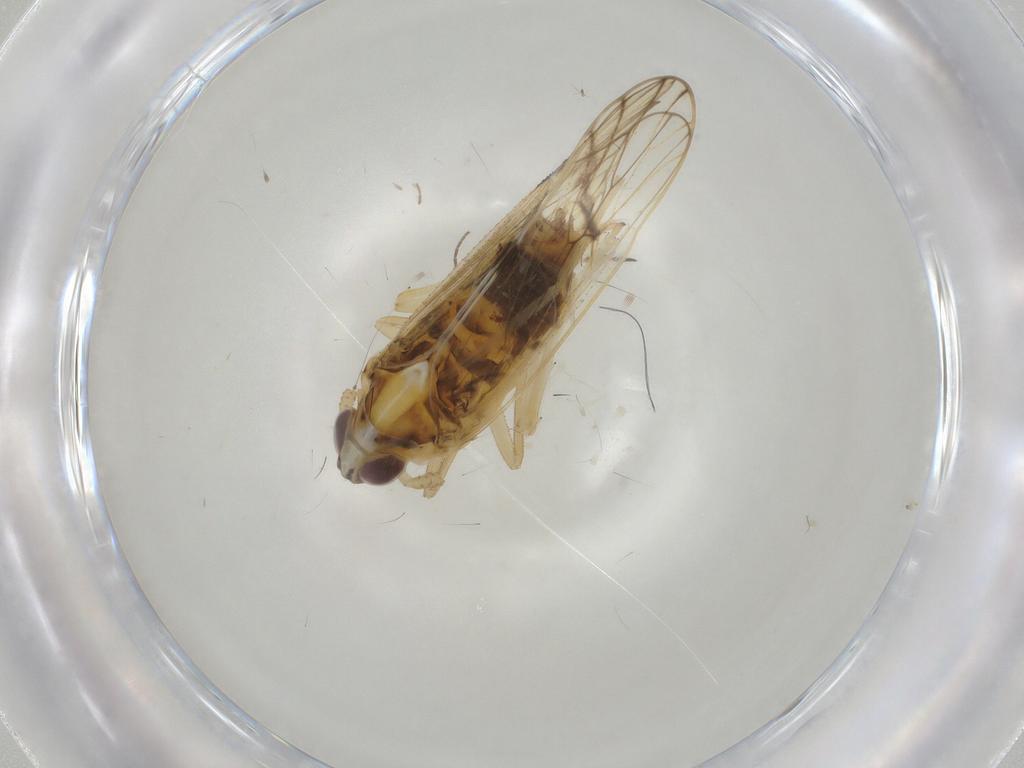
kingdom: Animalia
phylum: Arthropoda
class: Insecta
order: Hemiptera
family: Delphacidae
